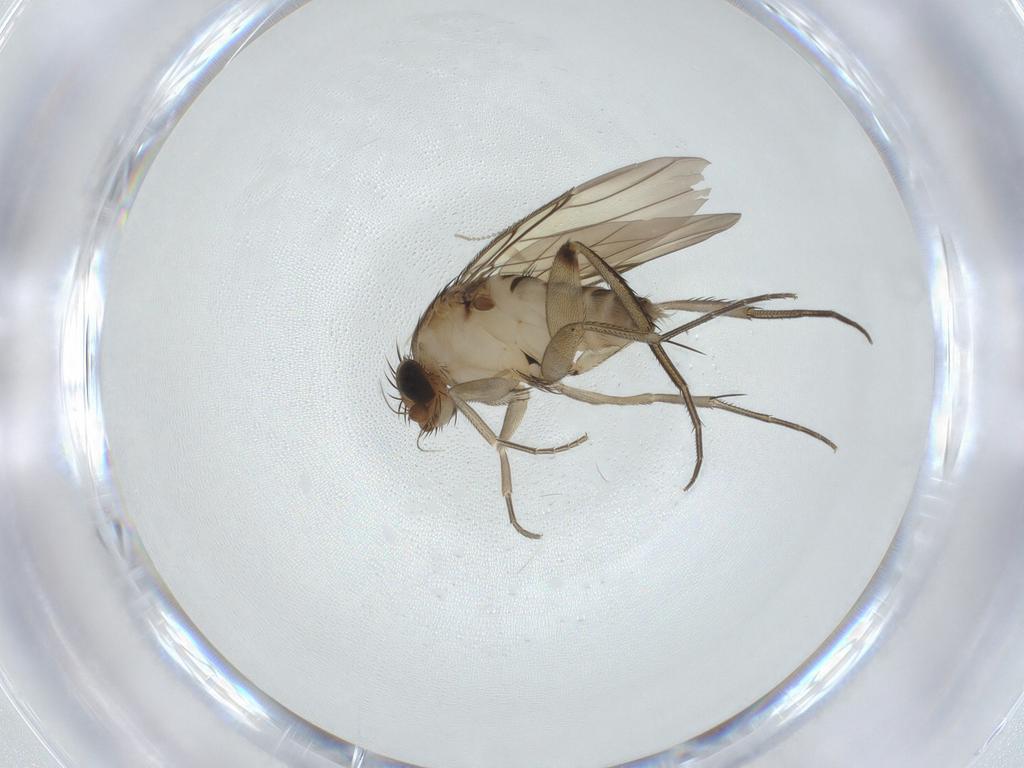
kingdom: Animalia
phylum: Arthropoda
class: Insecta
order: Diptera
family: Phoridae
